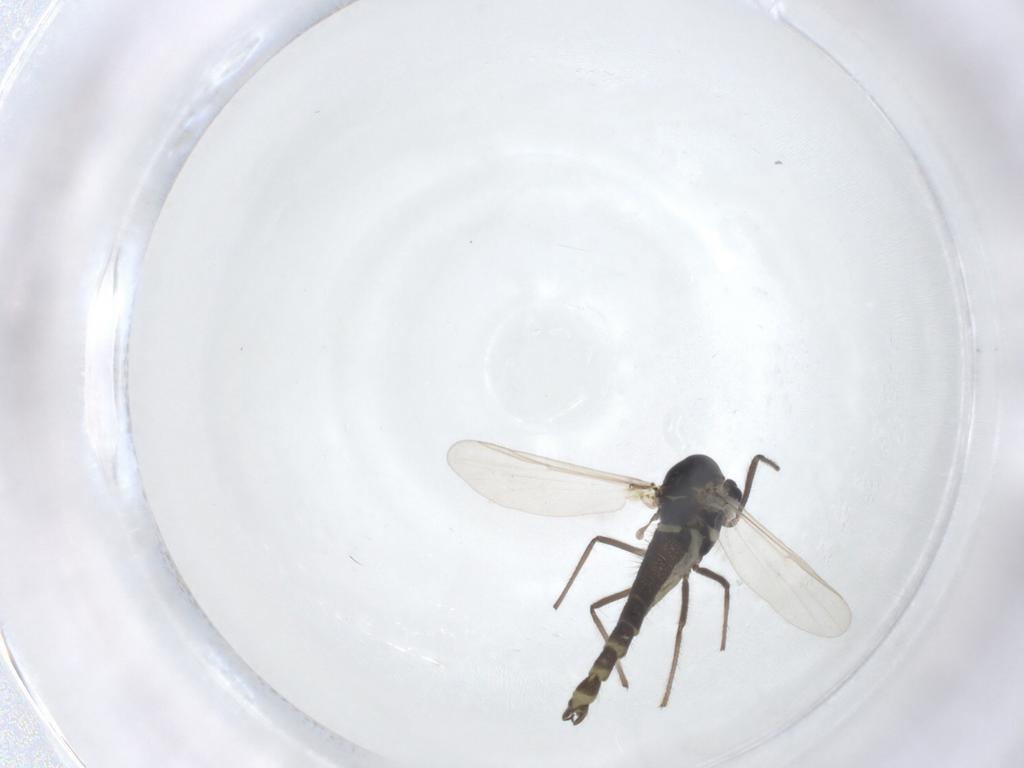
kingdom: Animalia
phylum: Arthropoda
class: Insecta
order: Diptera
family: Chironomidae
